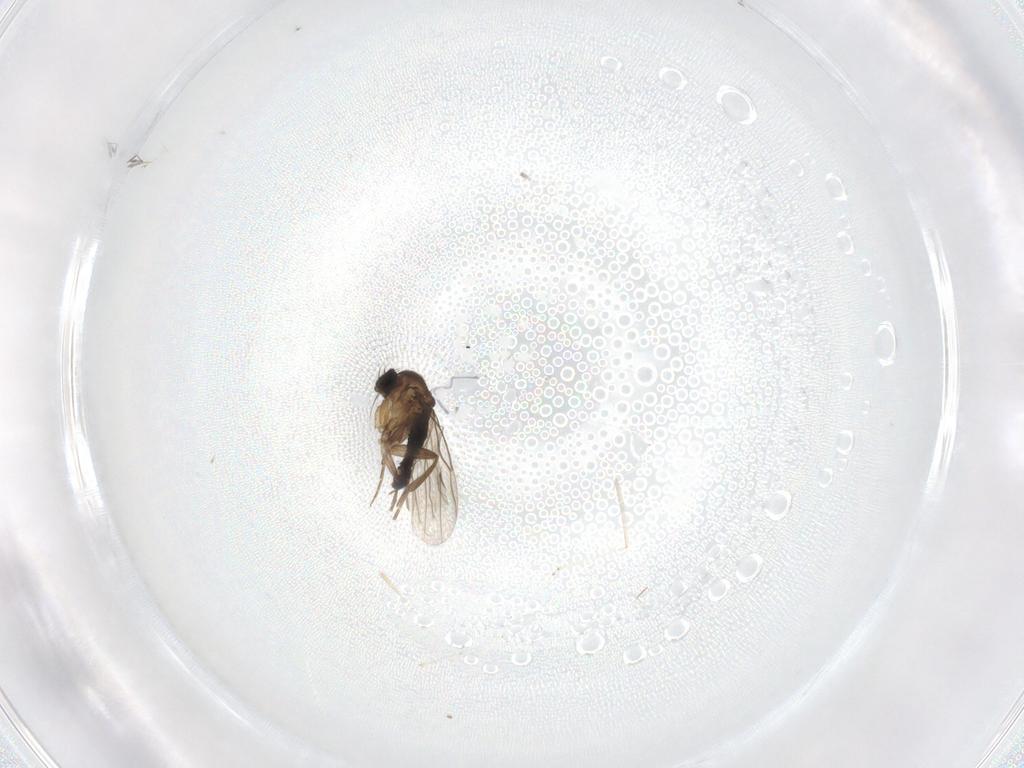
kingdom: Animalia
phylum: Arthropoda
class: Insecta
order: Diptera
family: Phoridae
